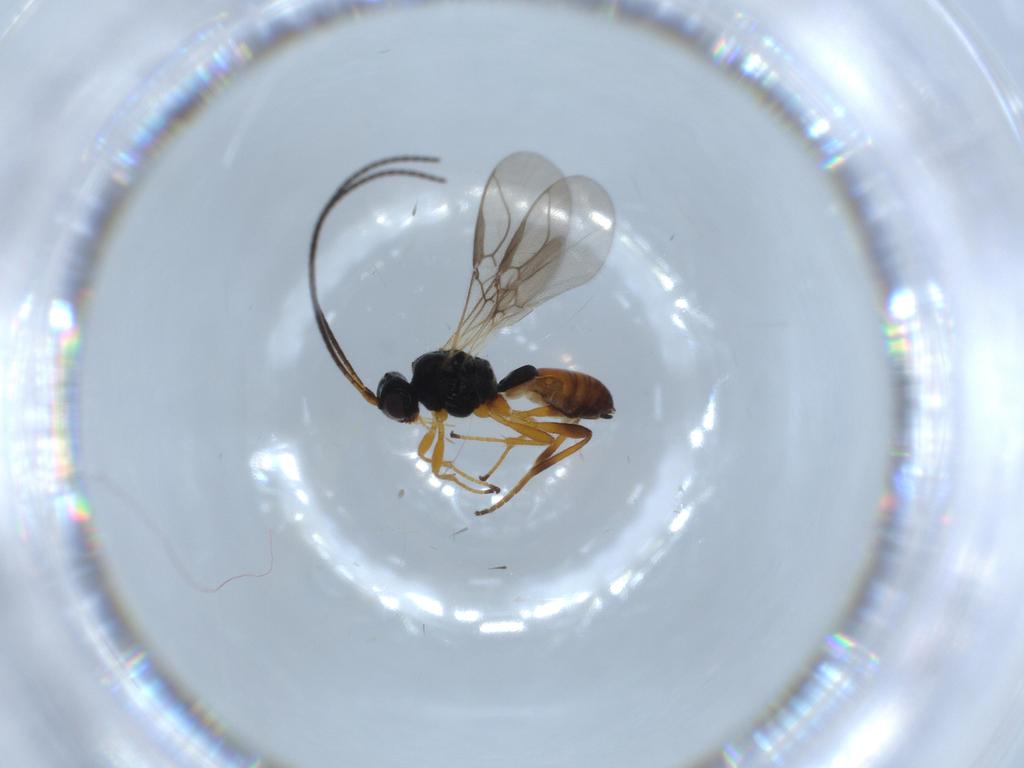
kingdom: Animalia
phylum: Arthropoda
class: Insecta
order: Hymenoptera
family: Braconidae
